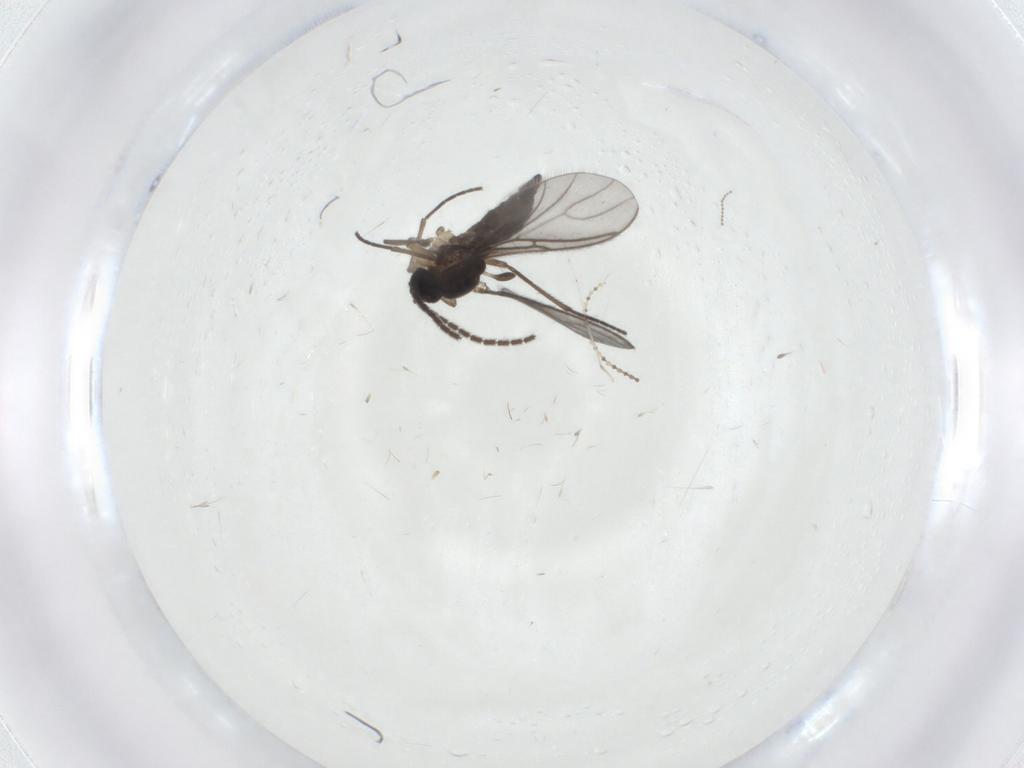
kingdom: Animalia
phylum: Arthropoda
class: Insecta
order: Diptera
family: Sciaridae
